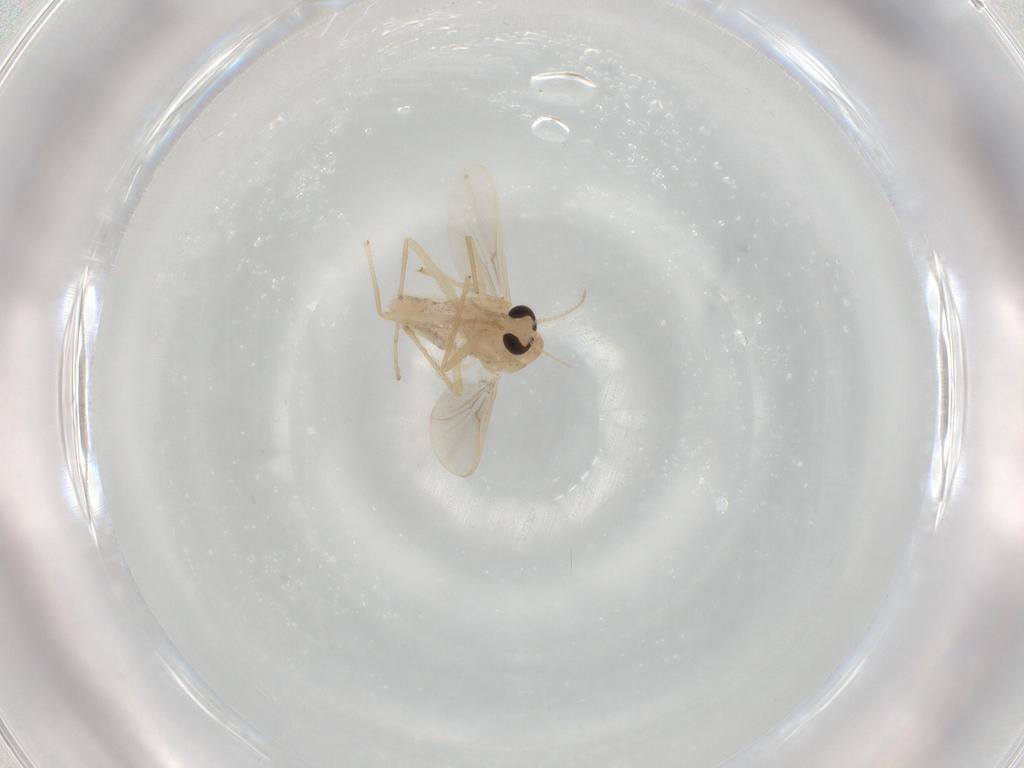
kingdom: Animalia
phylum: Arthropoda
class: Insecta
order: Diptera
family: Chironomidae
